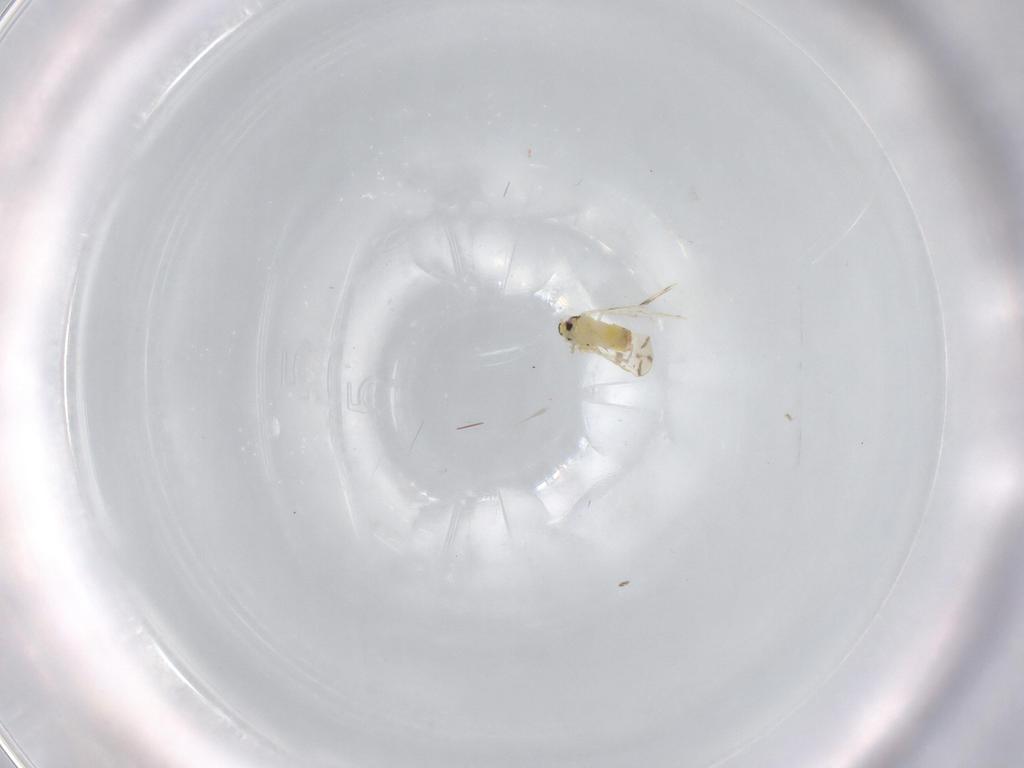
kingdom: Animalia
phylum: Arthropoda
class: Insecta
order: Hemiptera
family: Aleyrodidae
